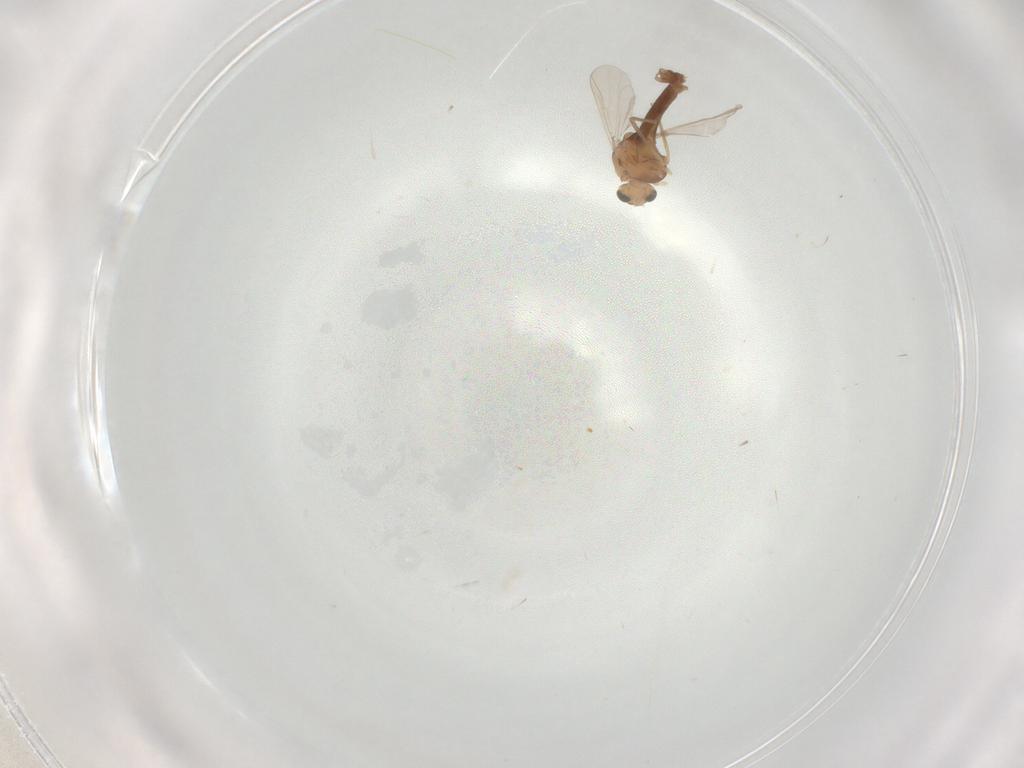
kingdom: Animalia
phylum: Arthropoda
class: Insecta
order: Diptera
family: Chironomidae
